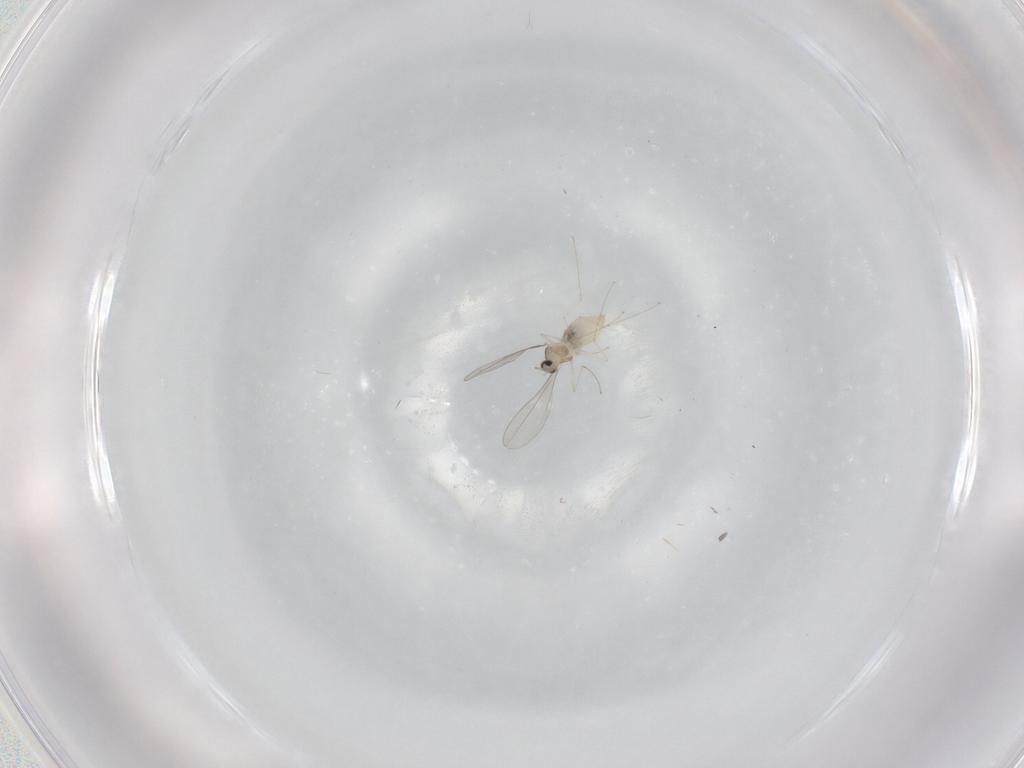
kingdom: Animalia
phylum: Arthropoda
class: Insecta
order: Diptera
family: Cecidomyiidae
